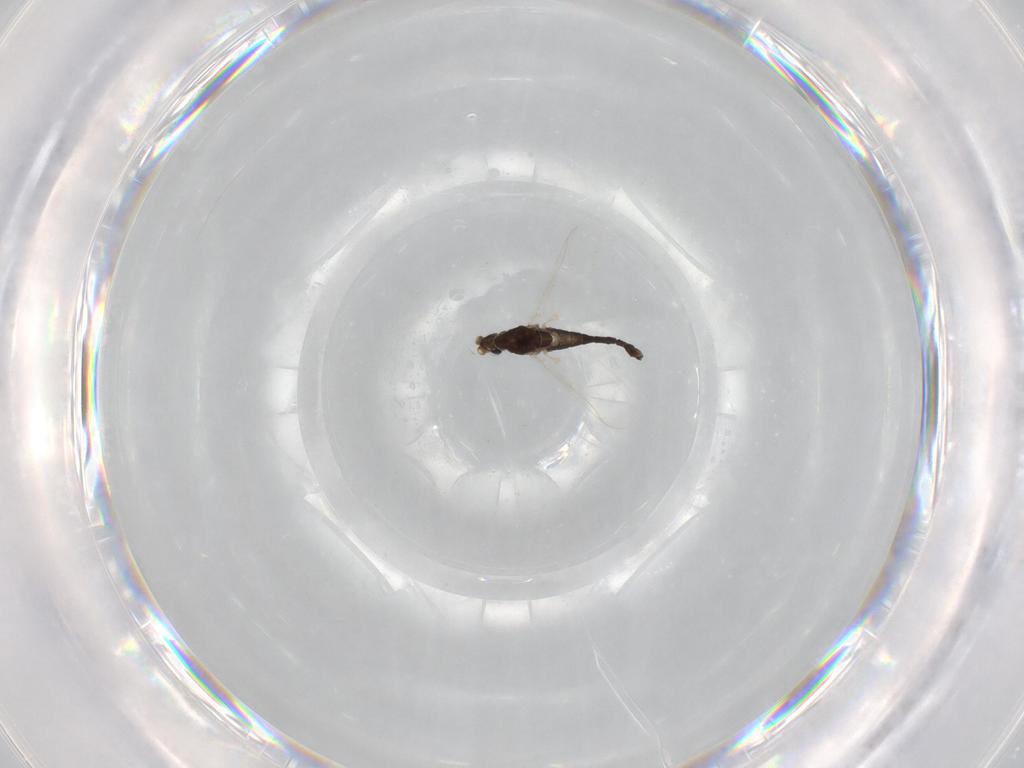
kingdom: Animalia
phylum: Arthropoda
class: Insecta
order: Diptera
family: Chironomidae
